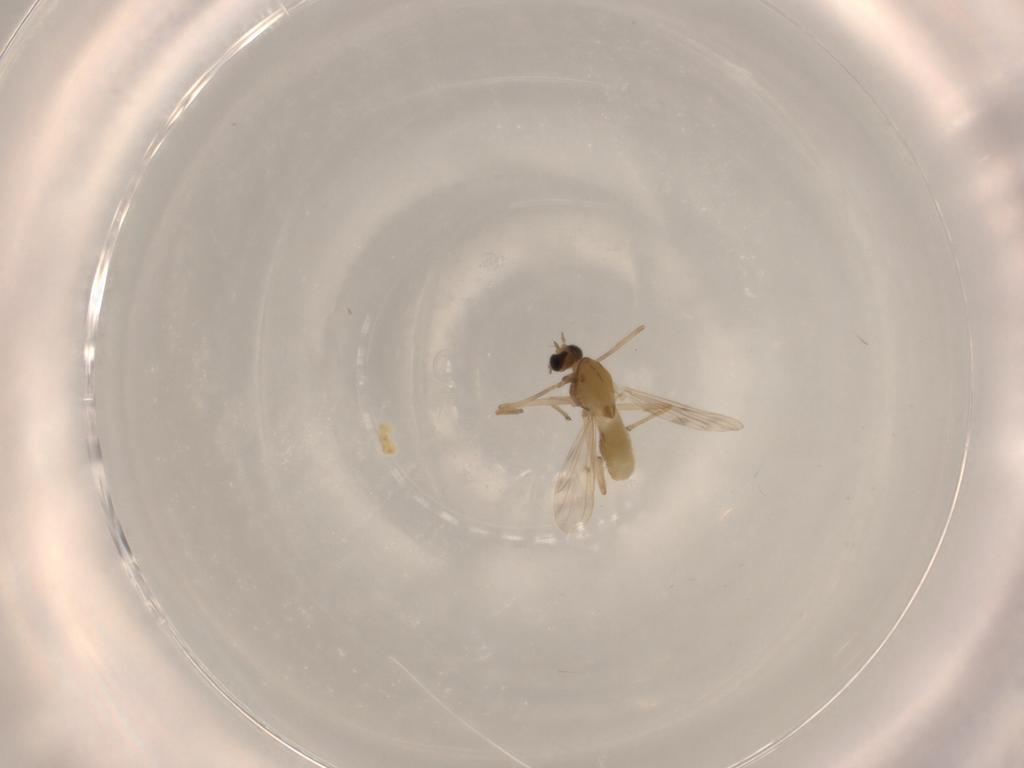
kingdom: Animalia
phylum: Arthropoda
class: Insecta
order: Diptera
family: Chironomidae
